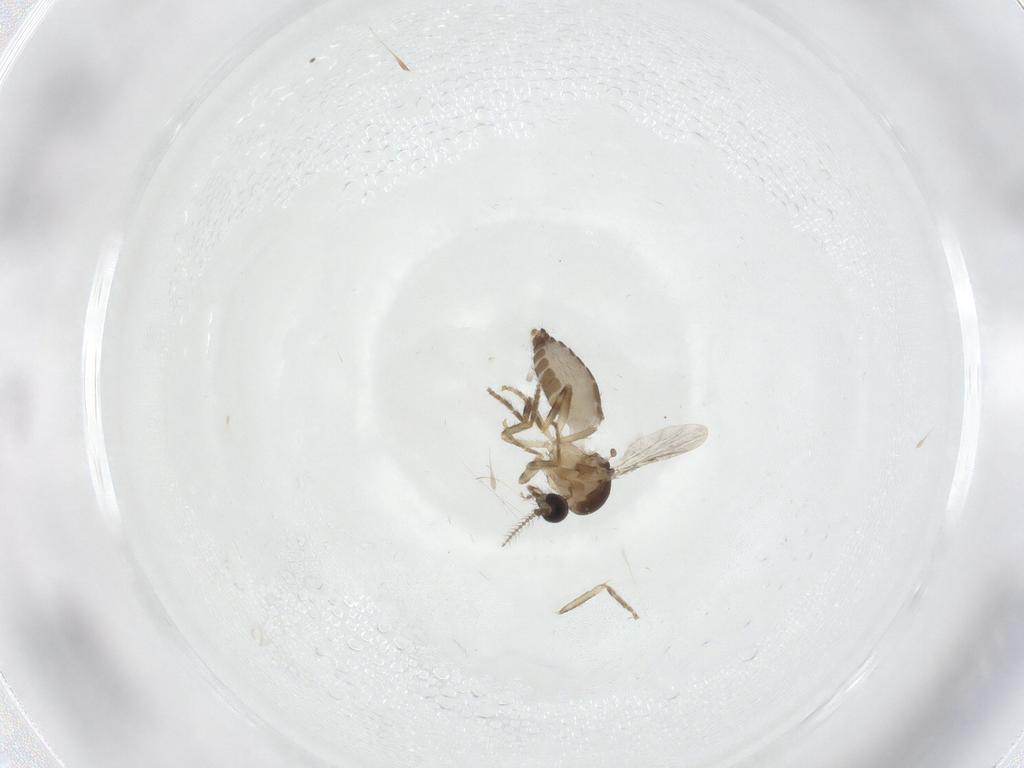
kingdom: Animalia
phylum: Arthropoda
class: Insecta
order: Diptera
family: Ceratopogonidae
